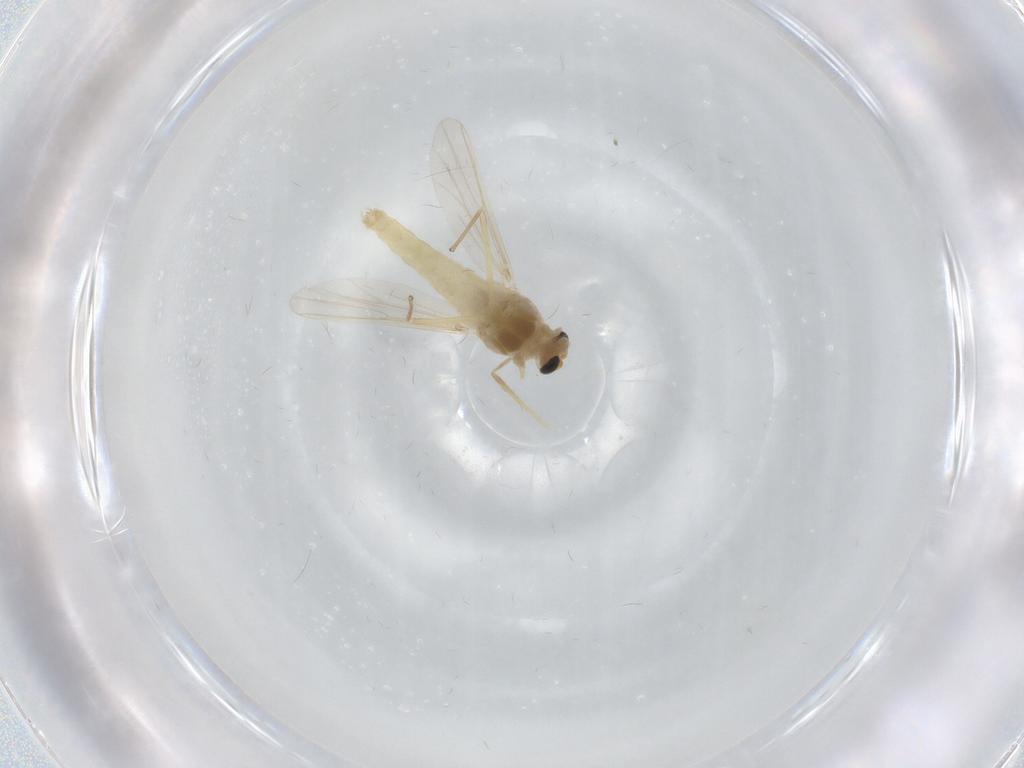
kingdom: Animalia
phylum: Arthropoda
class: Insecta
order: Diptera
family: Chironomidae
